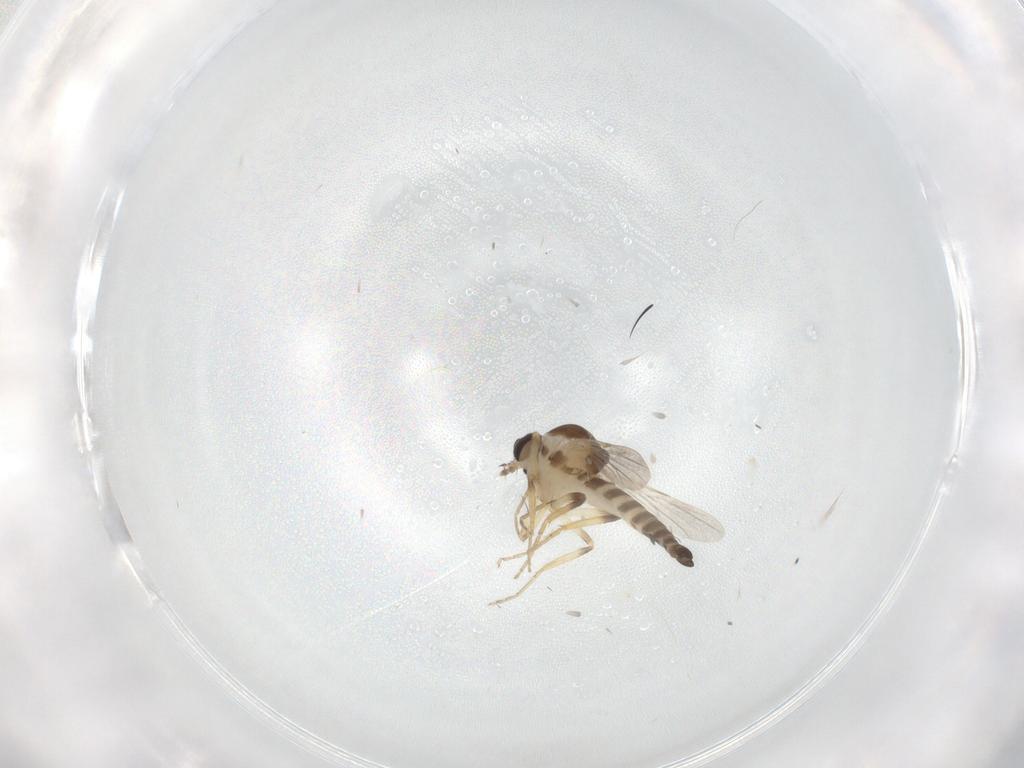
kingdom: Animalia
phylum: Arthropoda
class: Insecta
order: Diptera
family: Ceratopogonidae
